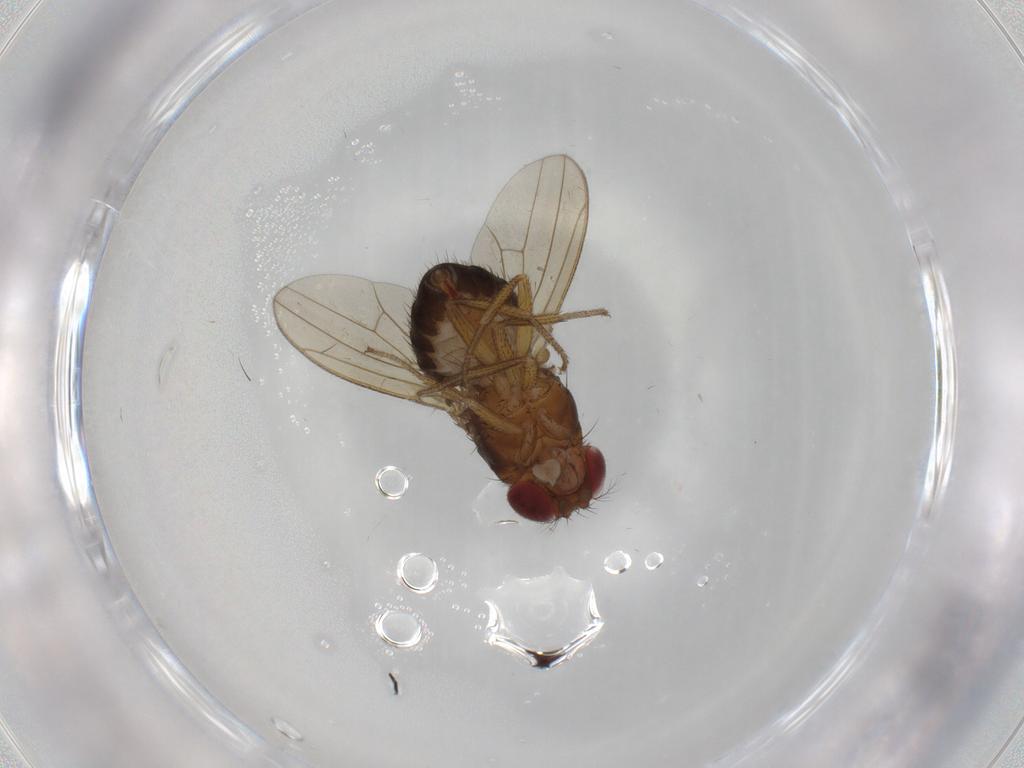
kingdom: Animalia
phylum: Arthropoda
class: Insecta
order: Diptera
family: Drosophilidae
